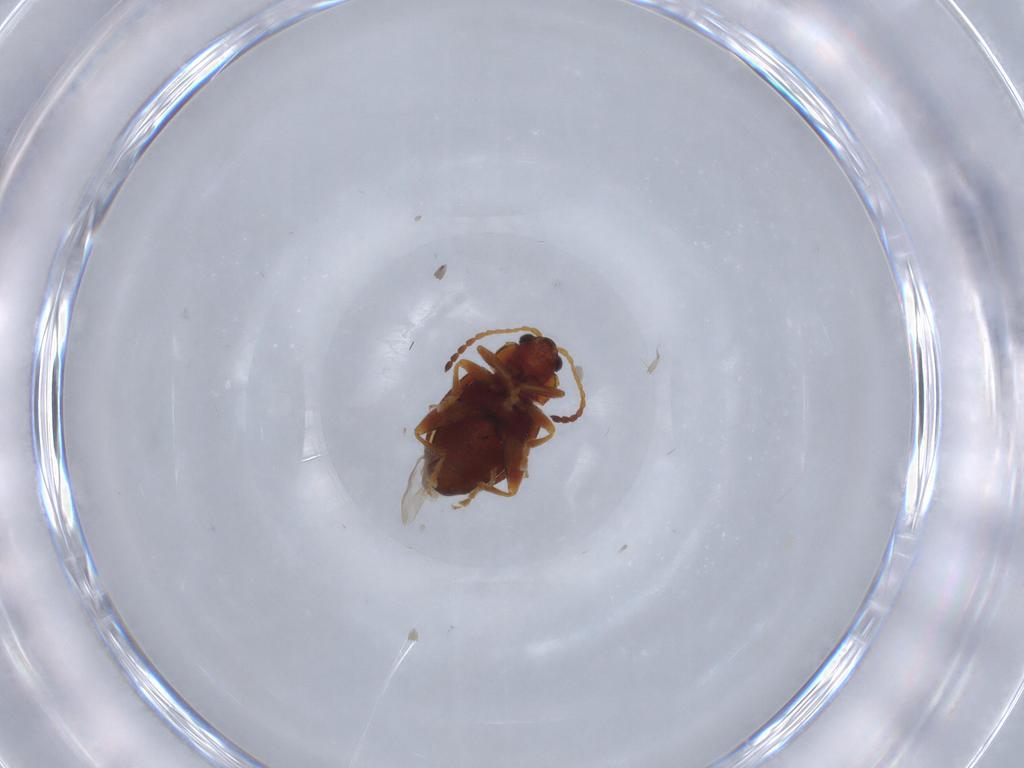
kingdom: Animalia
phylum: Arthropoda
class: Insecta
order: Coleoptera
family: Chrysomelidae
